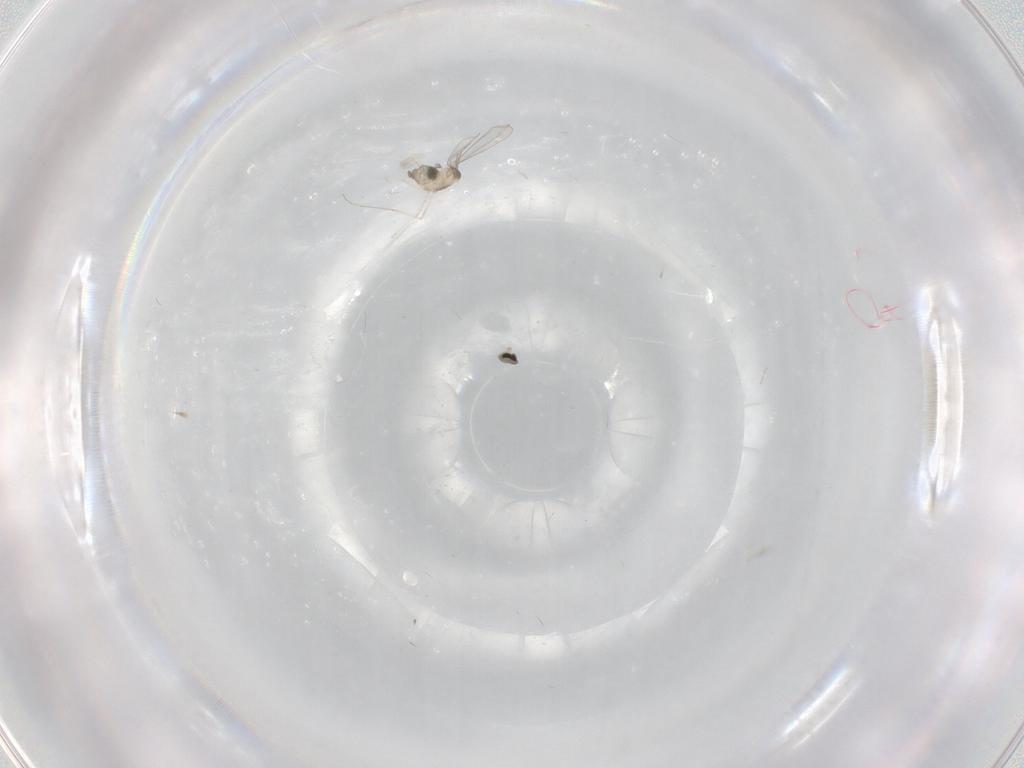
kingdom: Animalia
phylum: Arthropoda
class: Insecta
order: Diptera
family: Cecidomyiidae
